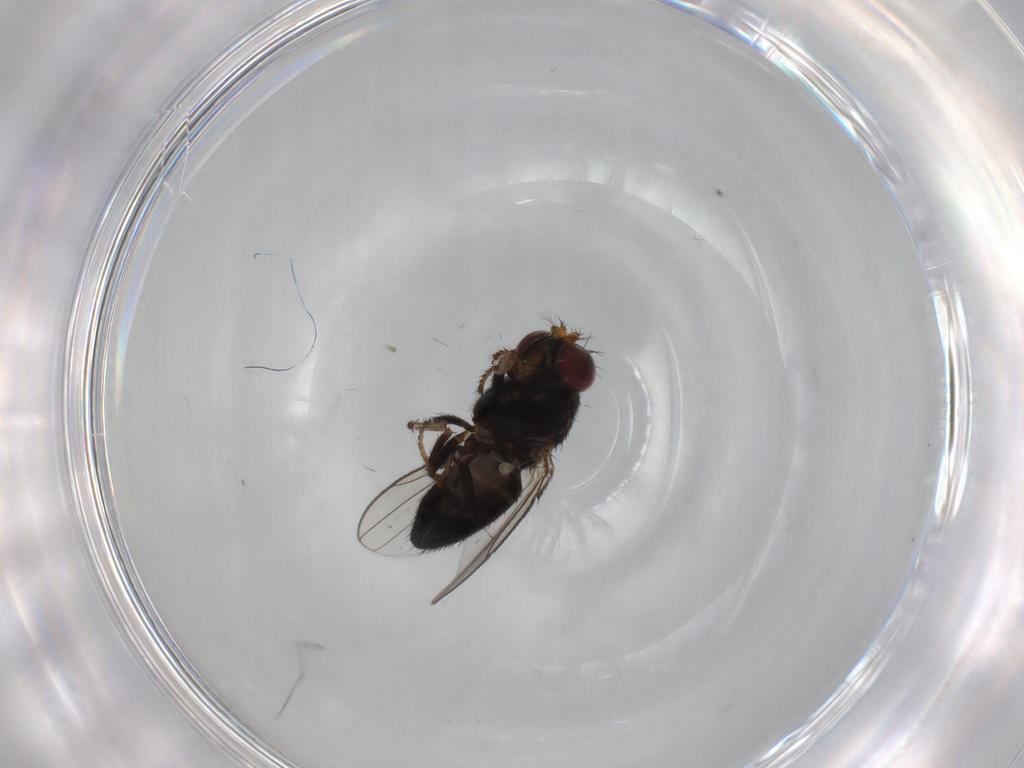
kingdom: Animalia
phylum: Arthropoda
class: Insecta
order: Diptera
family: Ephydridae
